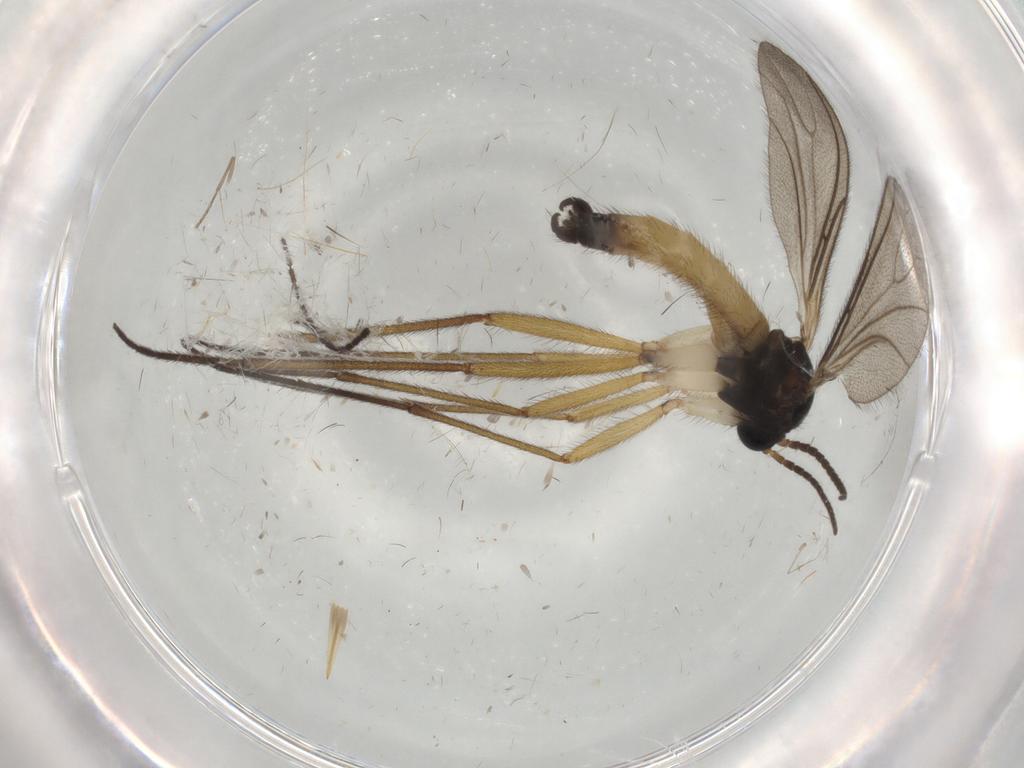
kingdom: Animalia
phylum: Arthropoda
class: Insecta
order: Diptera
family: Sciaridae
